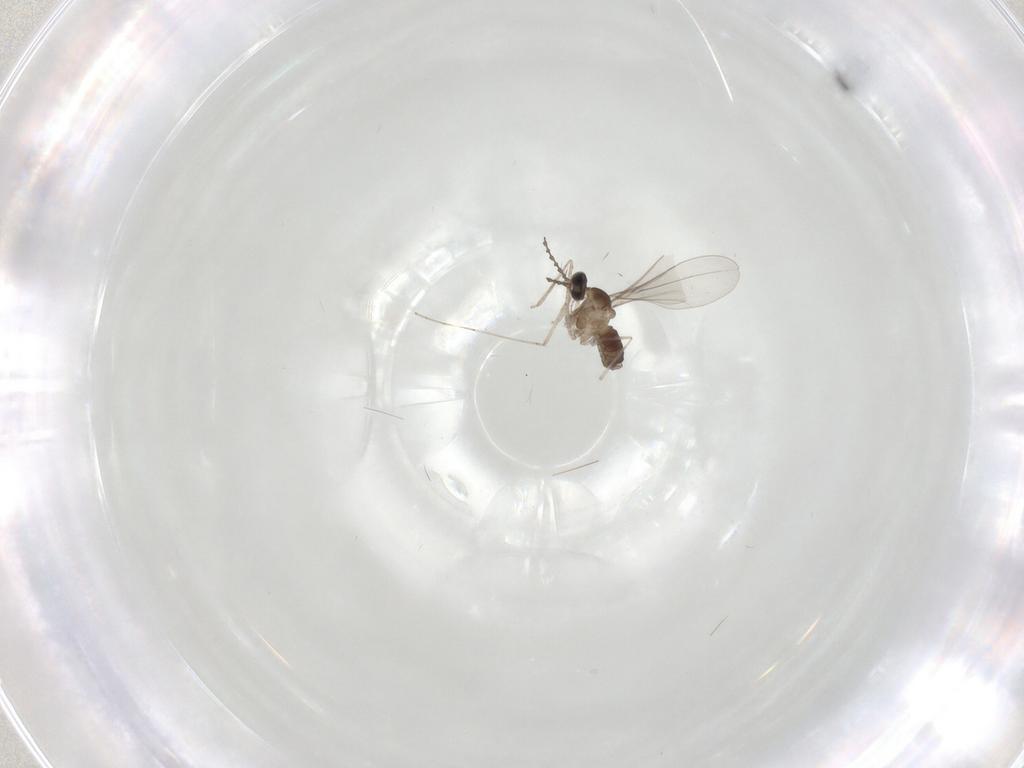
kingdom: Animalia
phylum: Arthropoda
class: Insecta
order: Diptera
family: Cecidomyiidae
